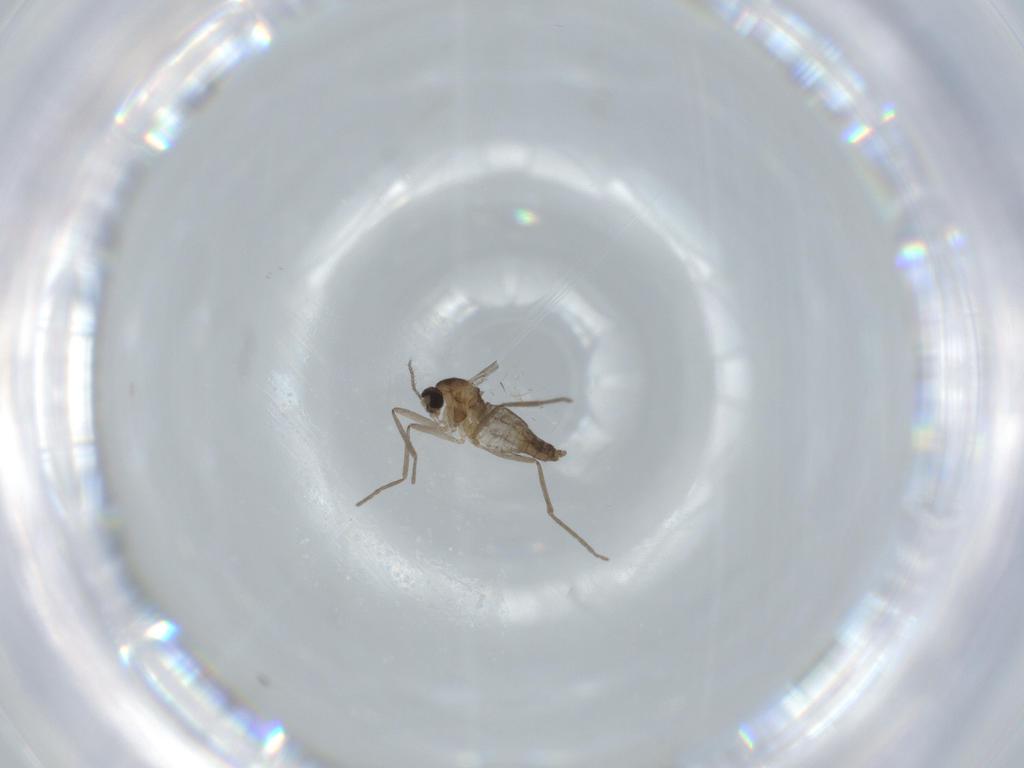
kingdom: Animalia
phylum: Arthropoda
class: Insecta
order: Diptera
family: Cecidomyiidae
